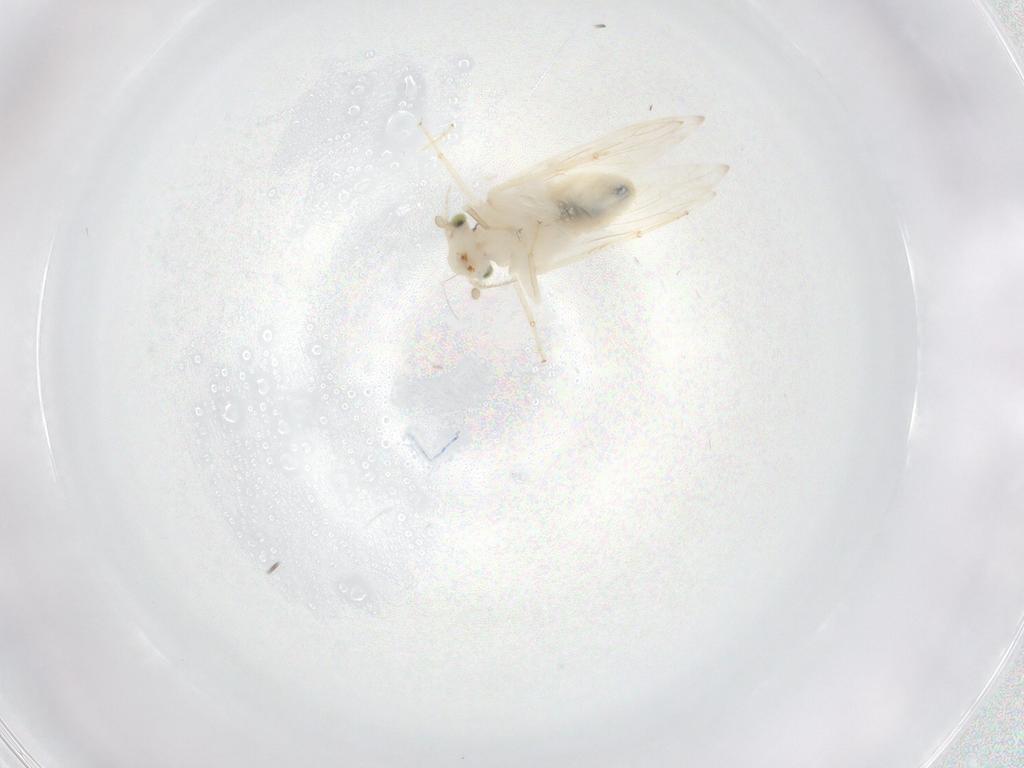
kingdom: Animalia
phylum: Arthropoda
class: Insecta
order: Psocodea
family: Lepidopsocidae
